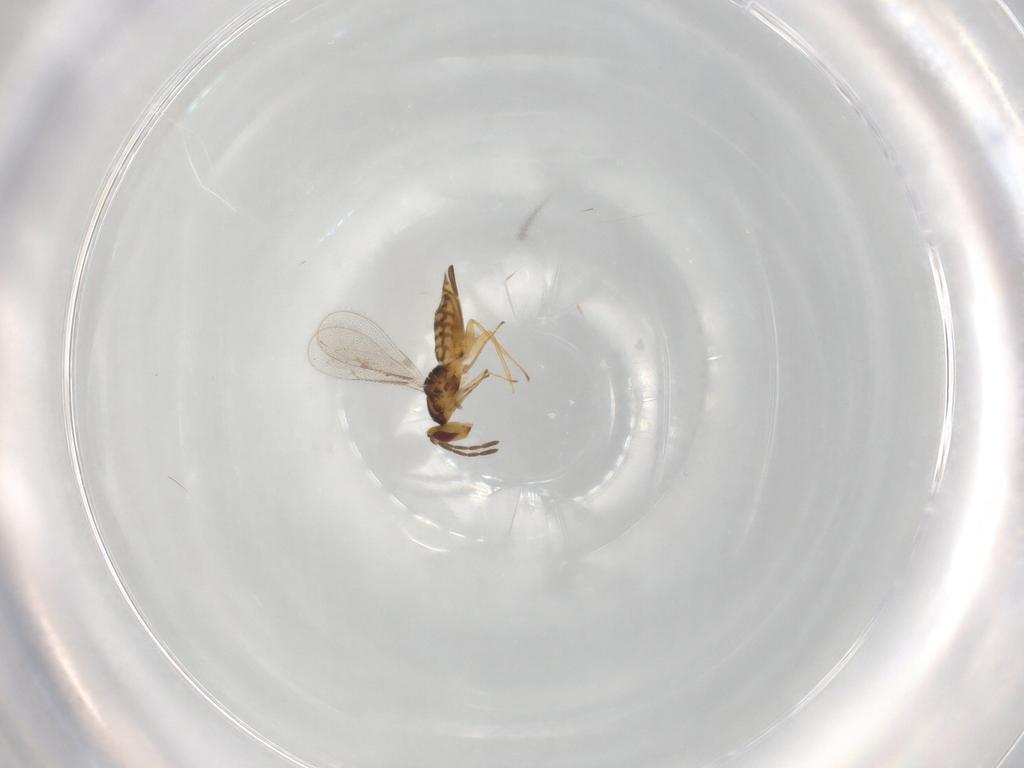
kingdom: Animalia
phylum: Arthropoda
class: Insecta
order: Hymenoptera
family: Eulophidae
